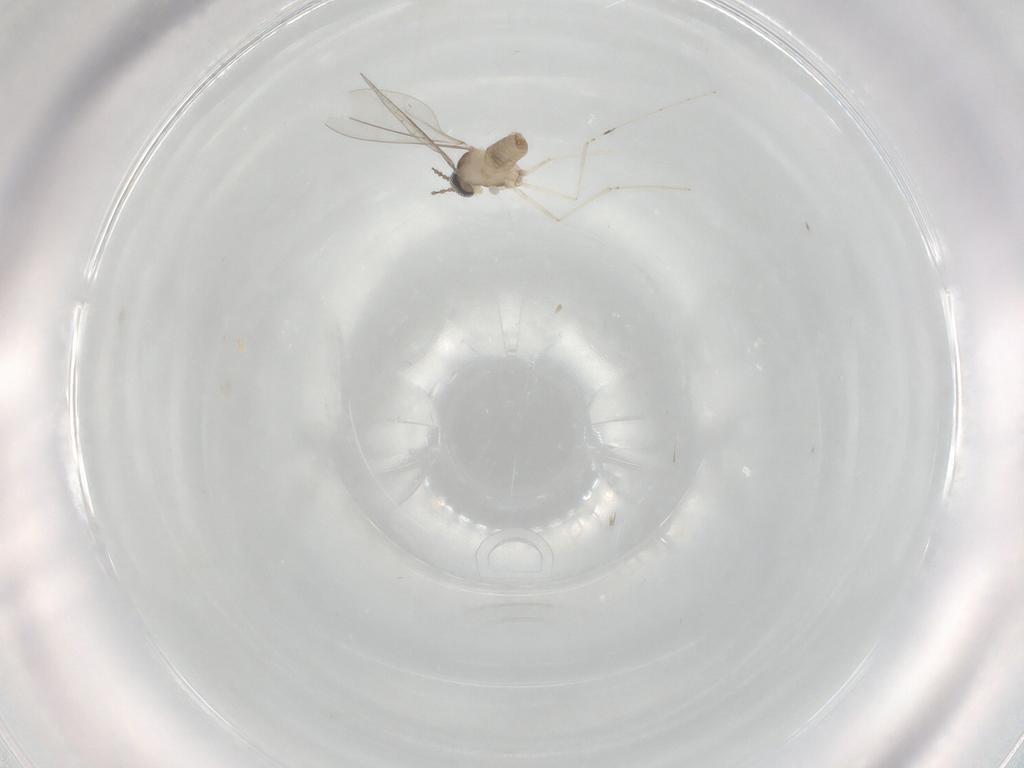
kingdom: Animalia
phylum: Arthropoda
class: Insecta
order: Diptera
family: Cecidomyiidae
